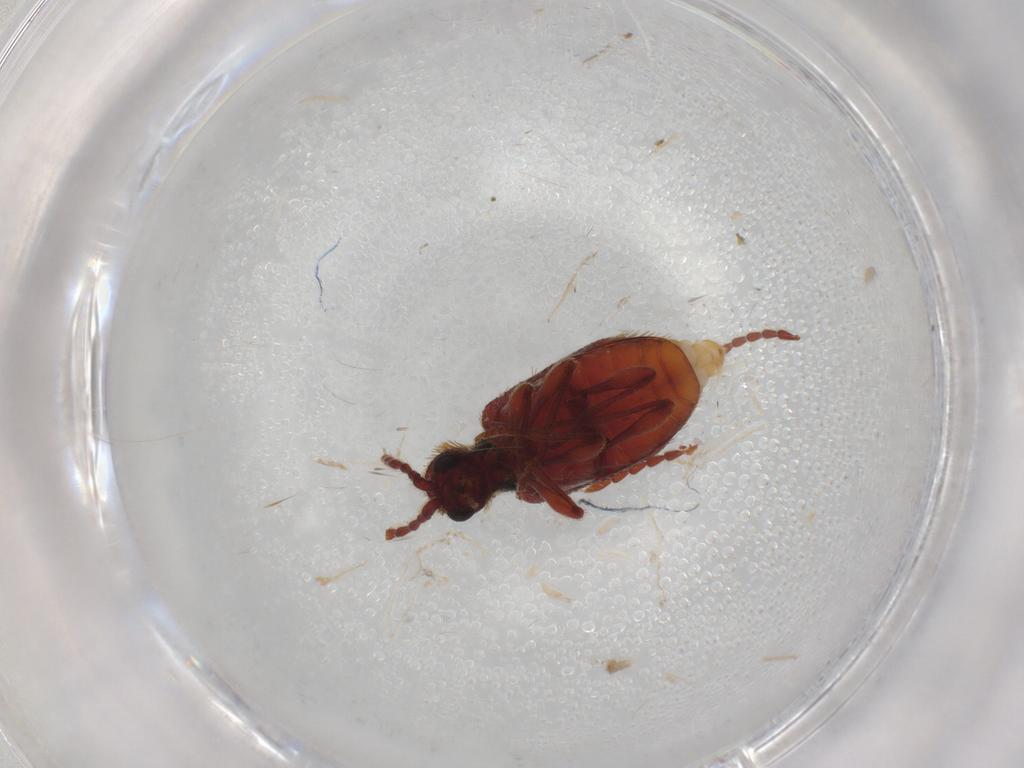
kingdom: Animalia
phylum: Arthropoda
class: Insecta
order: Coleoptera
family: Ptinidae
